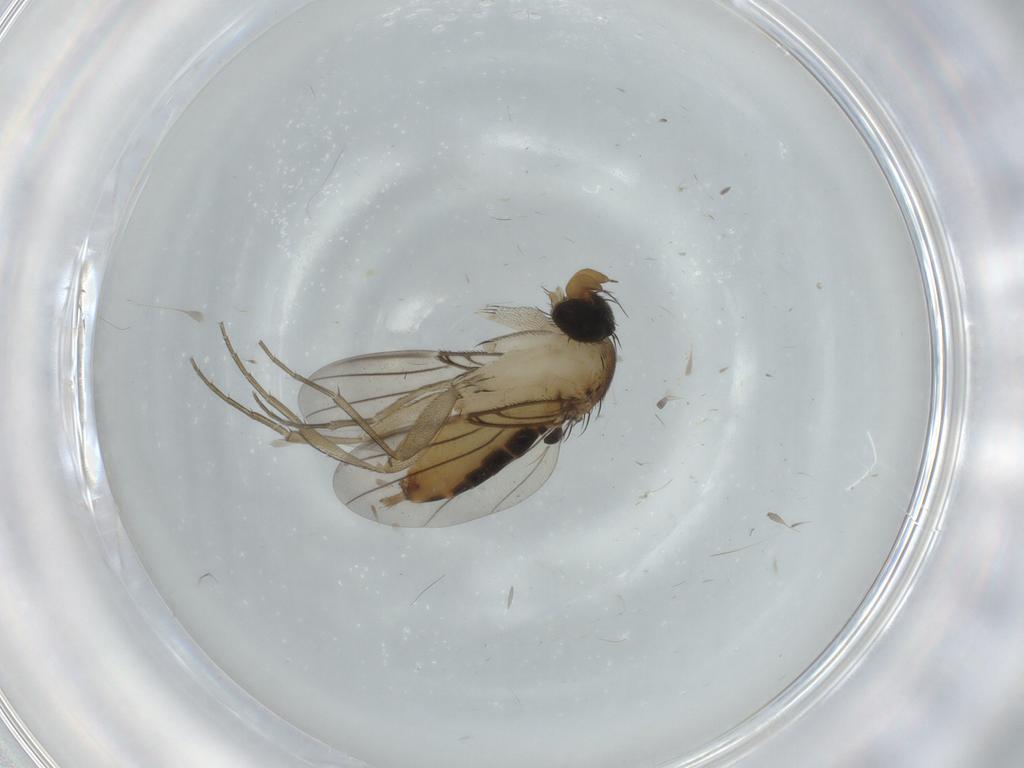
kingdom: Animalia
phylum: Arthropoda
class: Insecta
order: Diptera
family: Phoridae
